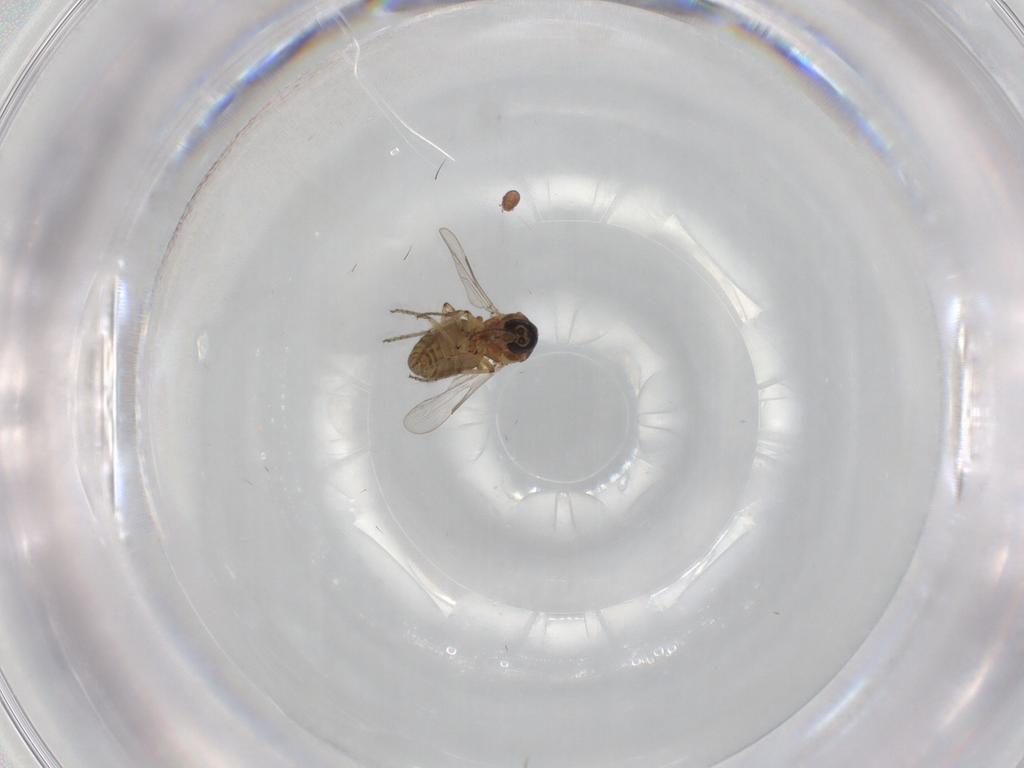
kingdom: Animalia
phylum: Arthropoda
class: Insecta
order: Diptera
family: Ceratopogonidae
